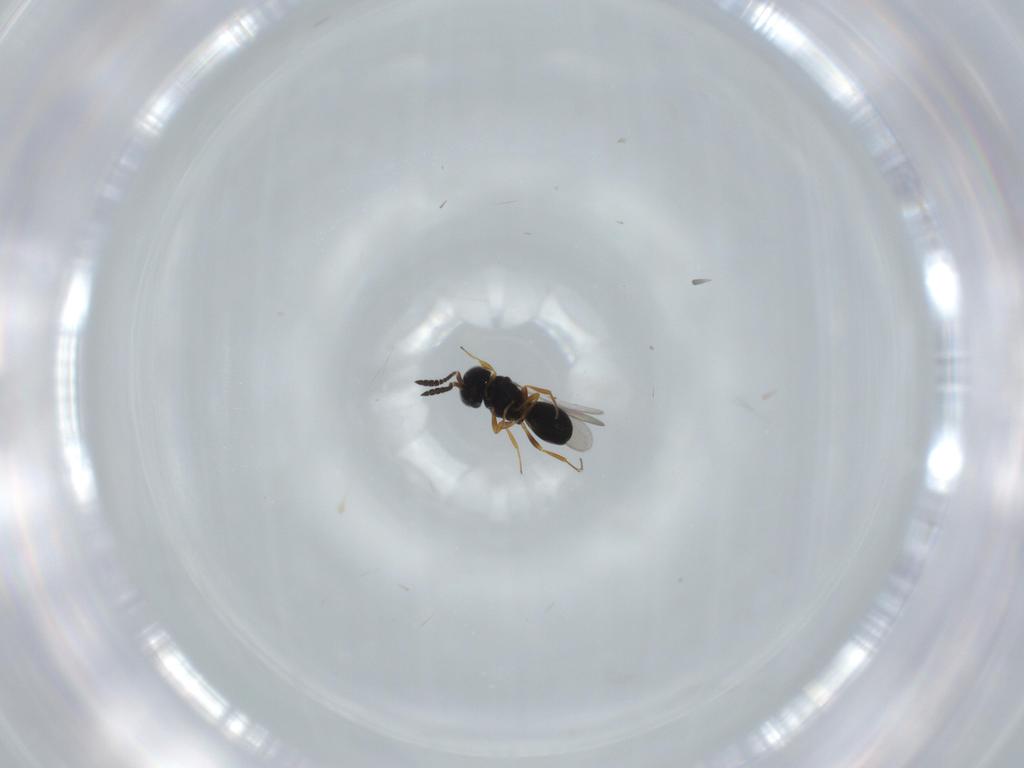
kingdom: Animalia
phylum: Arthropoda
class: Insecta
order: Hymenoptera
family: Scelionidae
